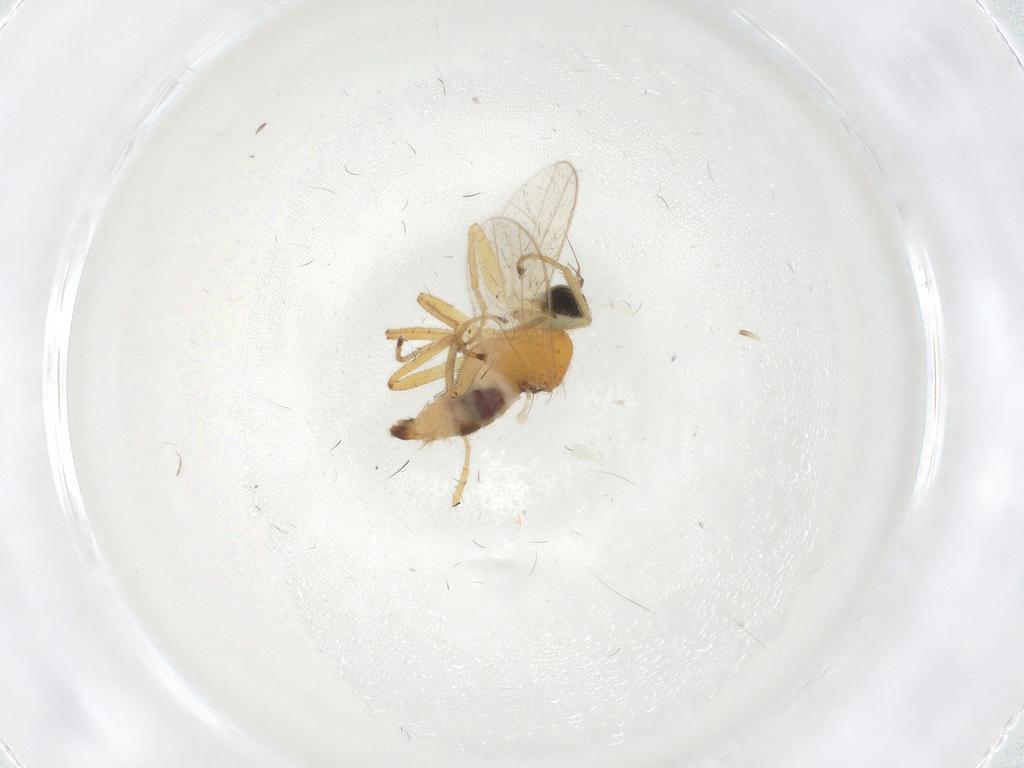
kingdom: Animalia
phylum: Arthropoda
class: Insecta
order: Diptera
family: Hybotidae
